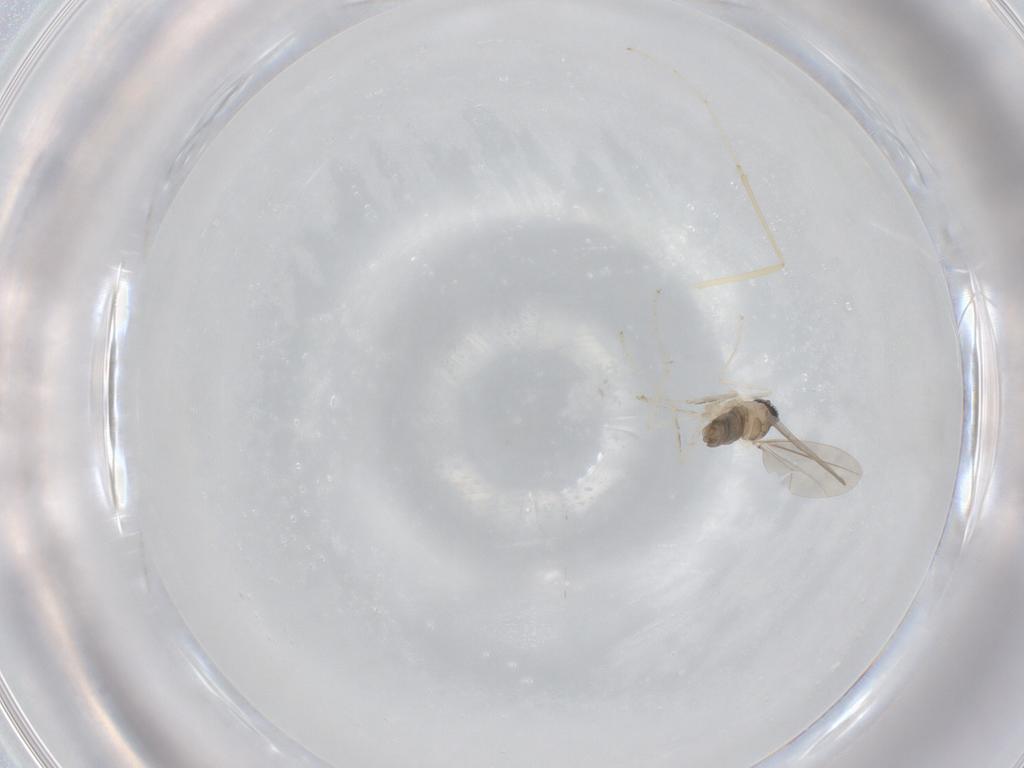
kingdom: Animalia
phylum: Arthropoda
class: Insecta
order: Diptera
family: Cecidomyiidae
